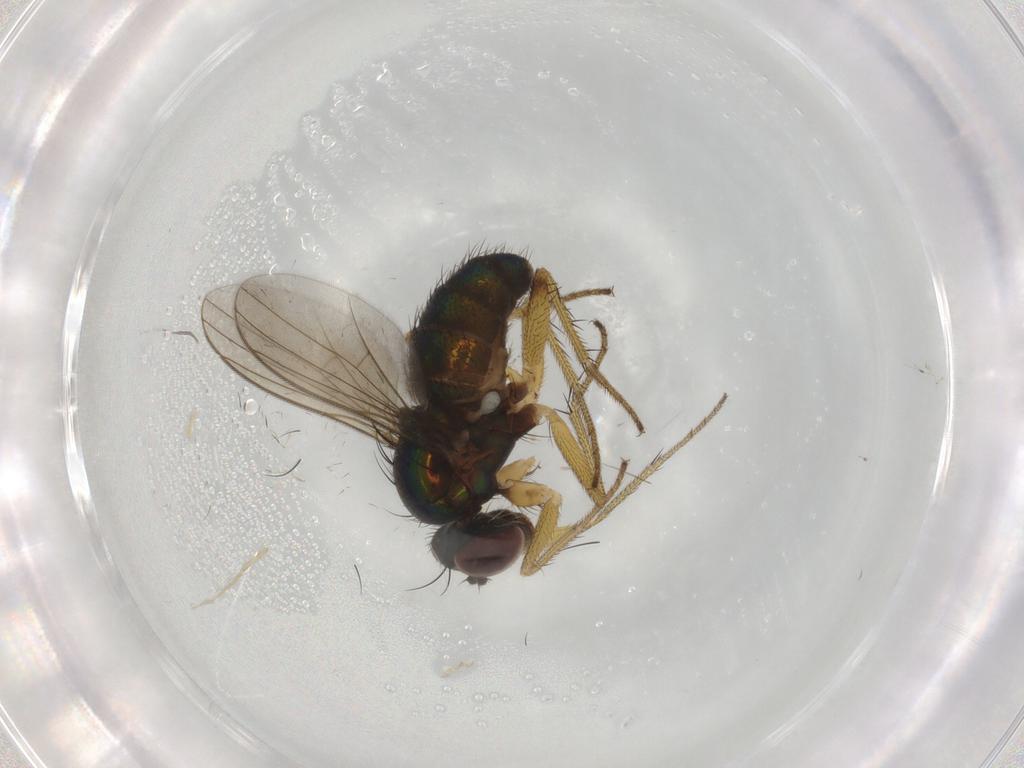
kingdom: Animalia
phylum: Arthropoda
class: Insecta
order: Diptera
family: Dolichopodidae
